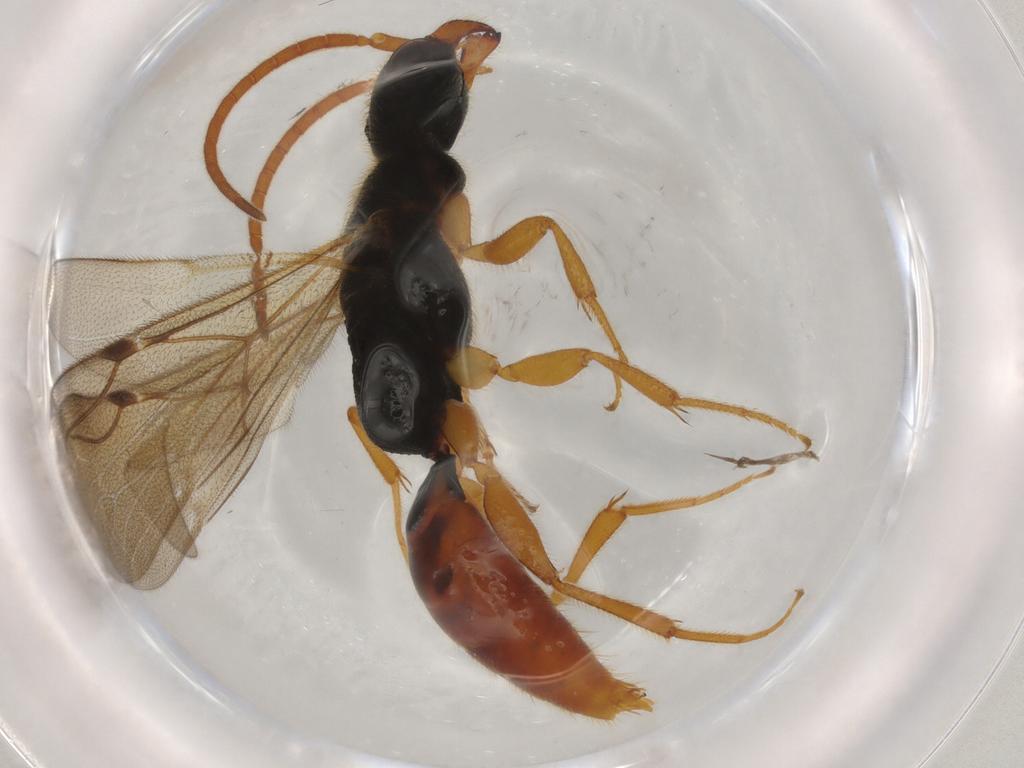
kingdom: Animalia
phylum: Arthropoda
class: Insecta
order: Hymenoptera
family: Bethylidae
